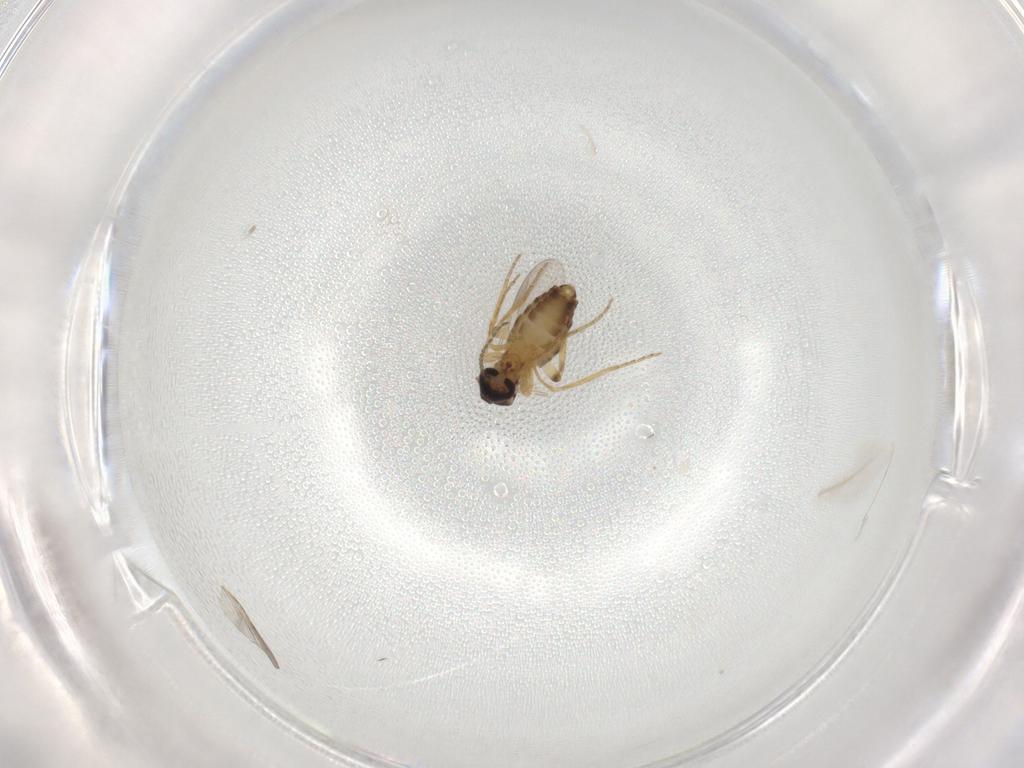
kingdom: Animalia
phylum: Arthropoda
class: Insecta
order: Diptera
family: Ceratopogonidae
